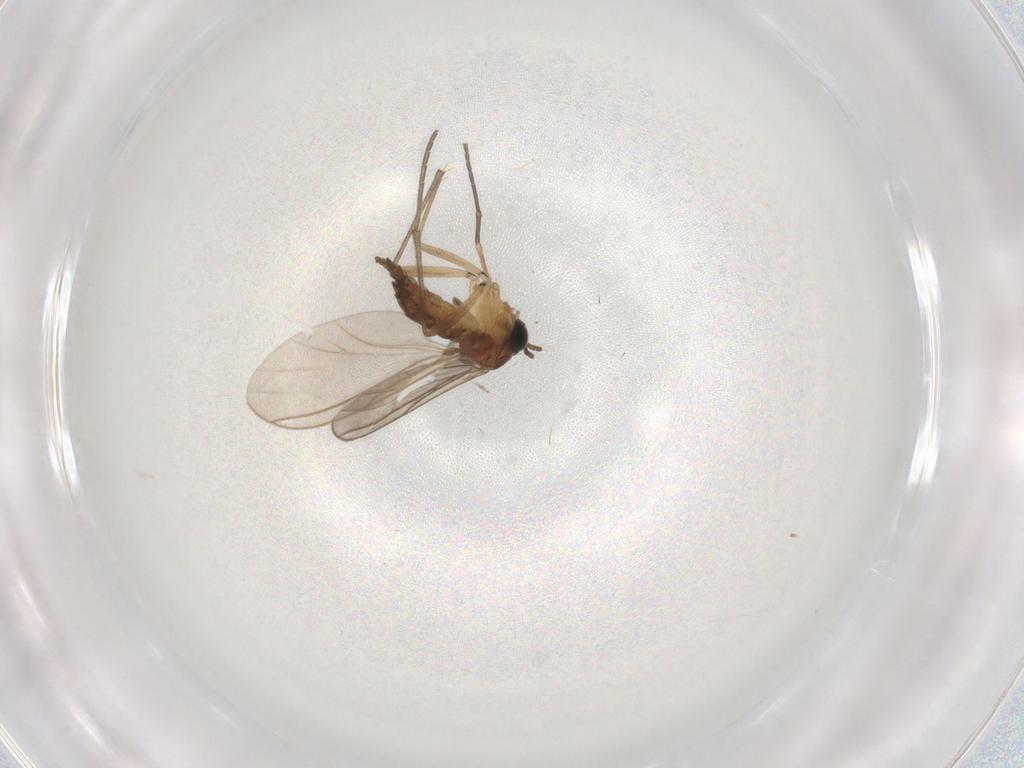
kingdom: Animalia
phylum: Arthropoda
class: Insecta
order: Diptera
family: Sciaridae
